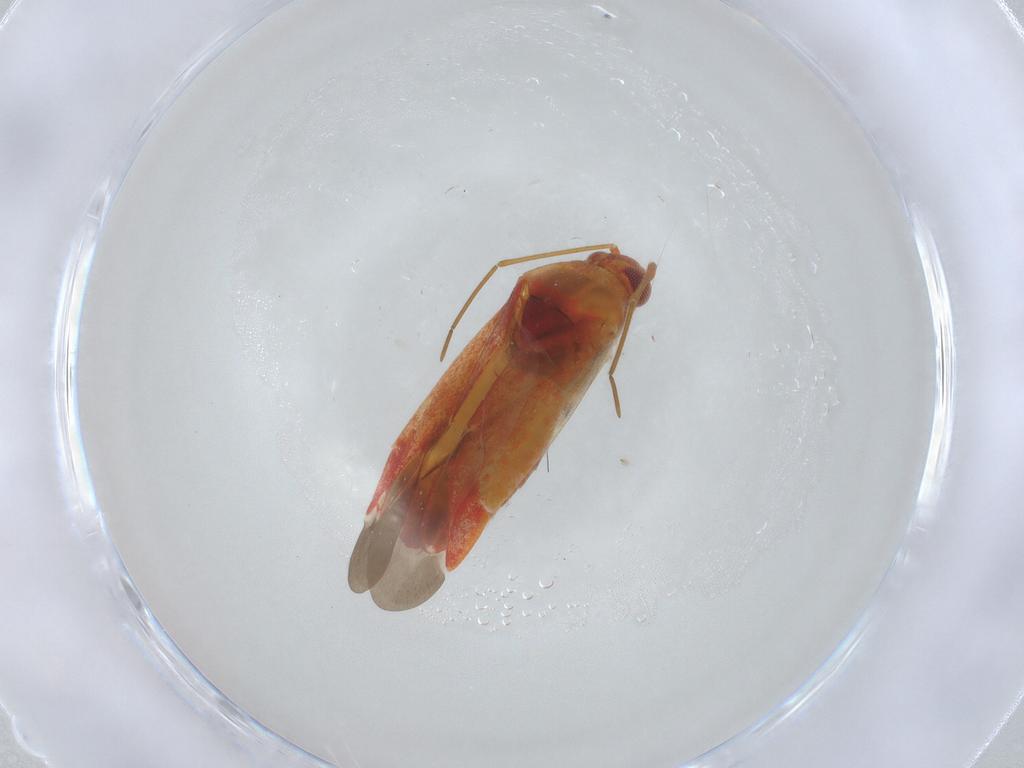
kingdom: Animalia
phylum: Arthropoda
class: Insecta
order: Hemiptera
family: Miridae
